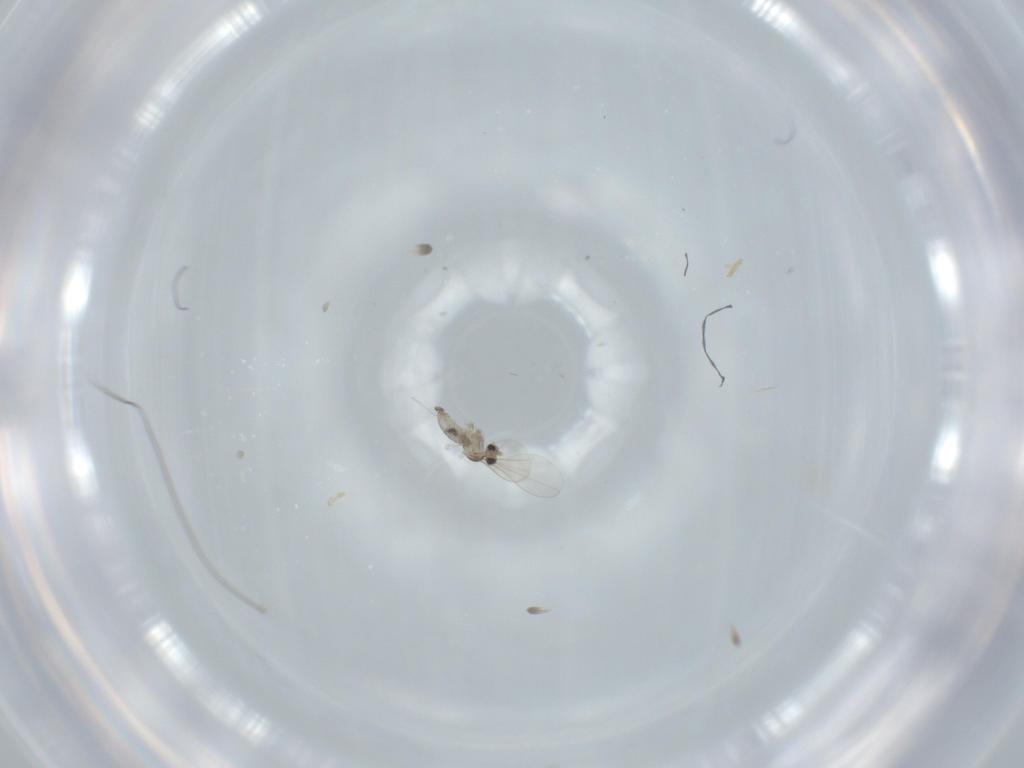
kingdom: Animalia
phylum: Arthropoda
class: Insecta
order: Diptera
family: Cecidomyiidae
